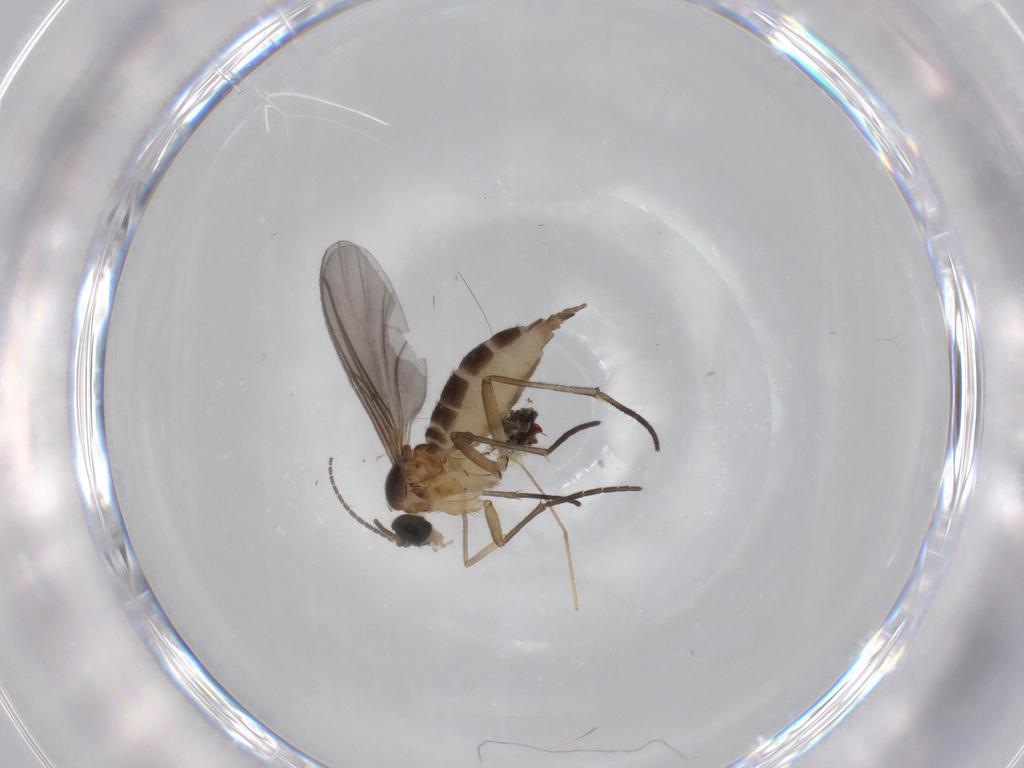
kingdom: Animalia
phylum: Arthropoda
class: Insecta
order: Diptera
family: Sciaridae
